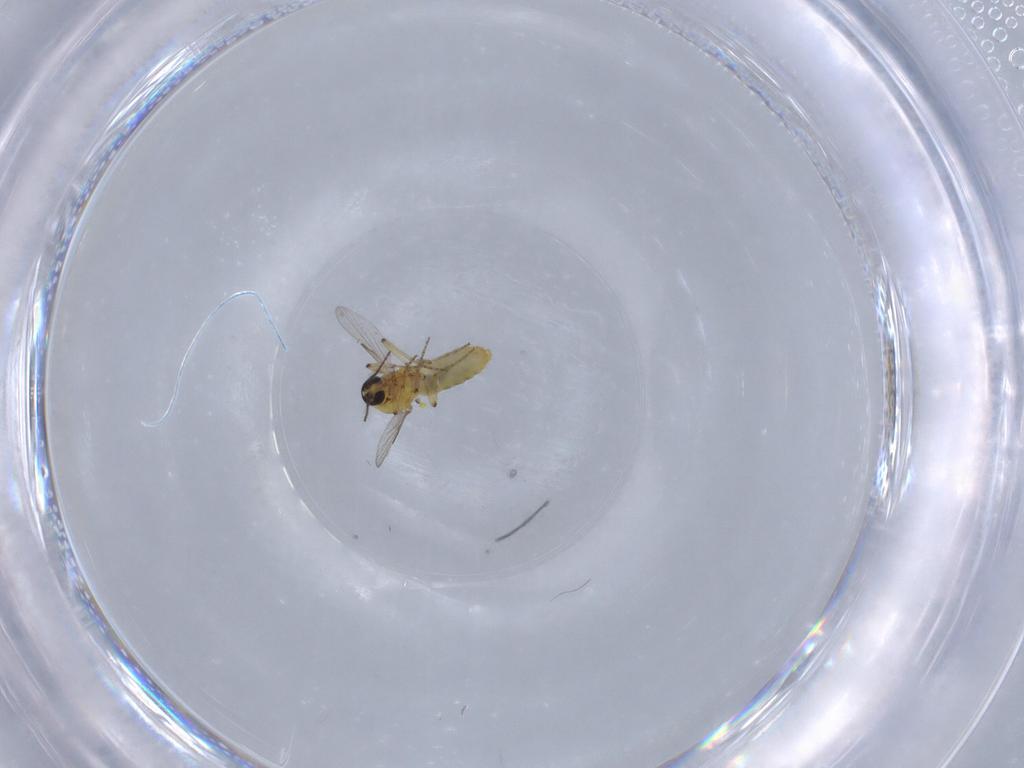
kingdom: Animalia
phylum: Arthropoda
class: Insecta
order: Diptera
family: Ceratopogonidae
